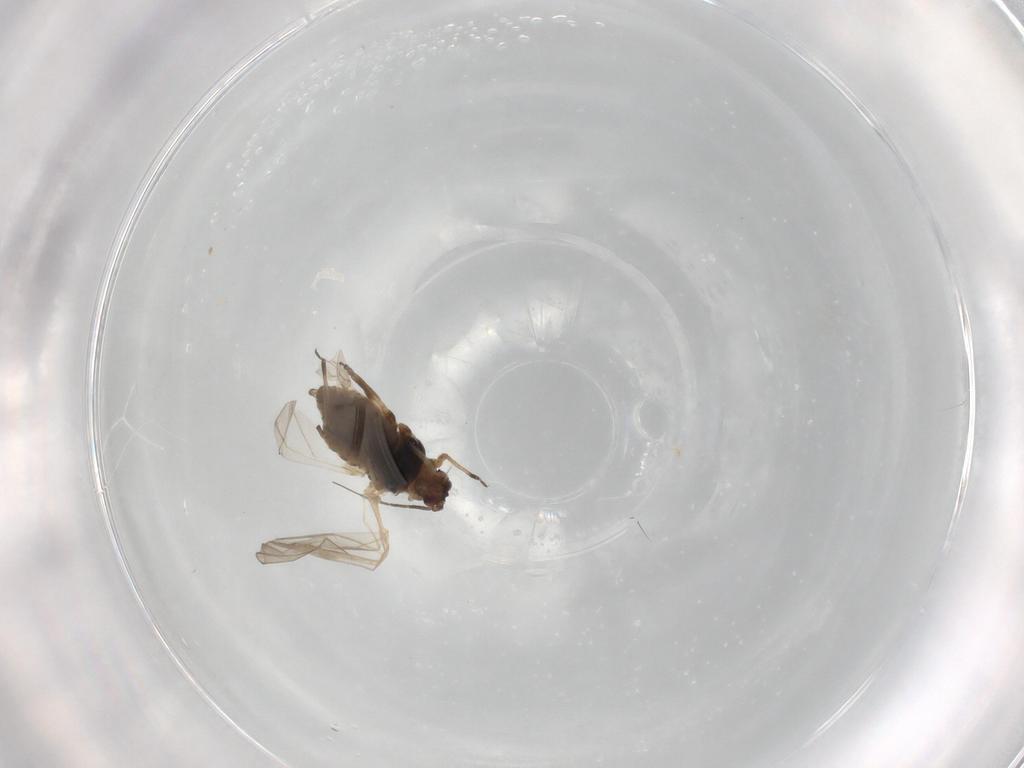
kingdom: Animalia
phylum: Arthropoda
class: Insecta
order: Hemiptera
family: Aphididae
